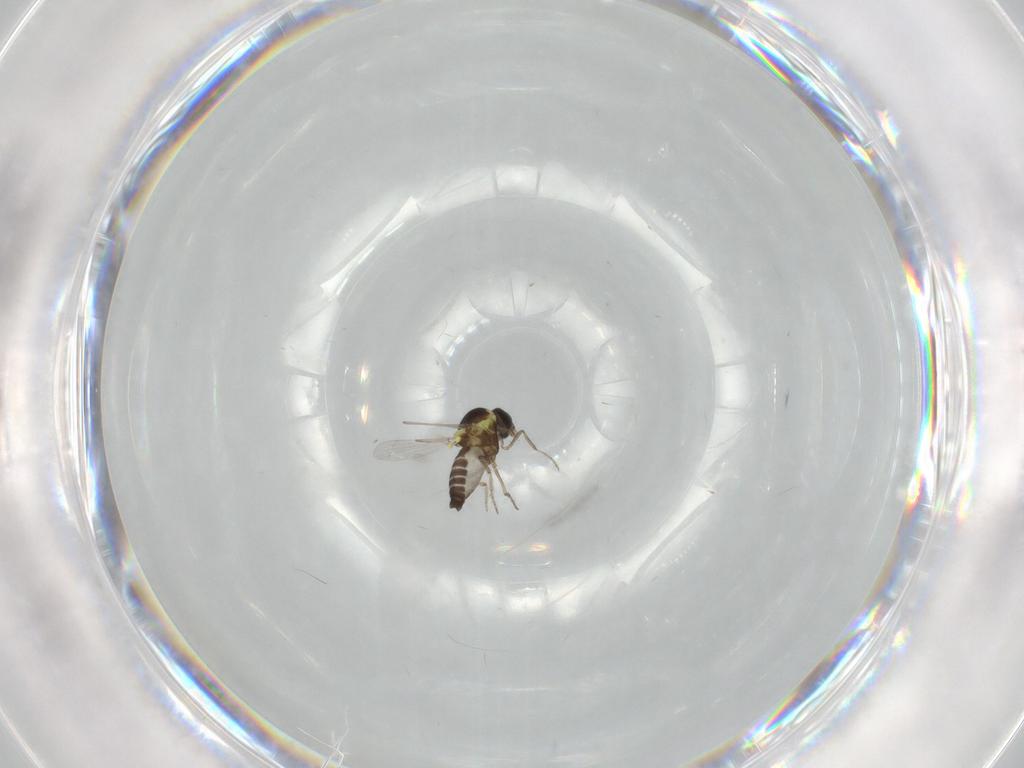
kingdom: Animalia
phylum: Arthropoda
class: Insecta
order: Diptera
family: Ceratopogonidae
